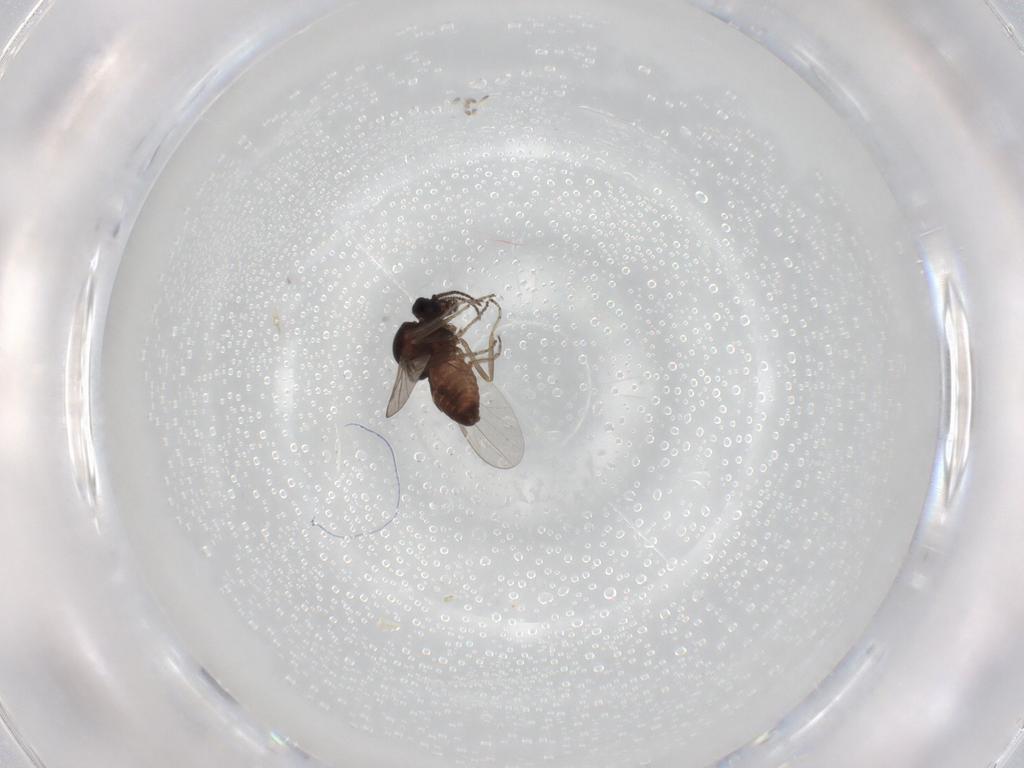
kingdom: Animalia
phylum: Arthropoda
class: Insecta
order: Diptera
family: Ceratopogonidae
